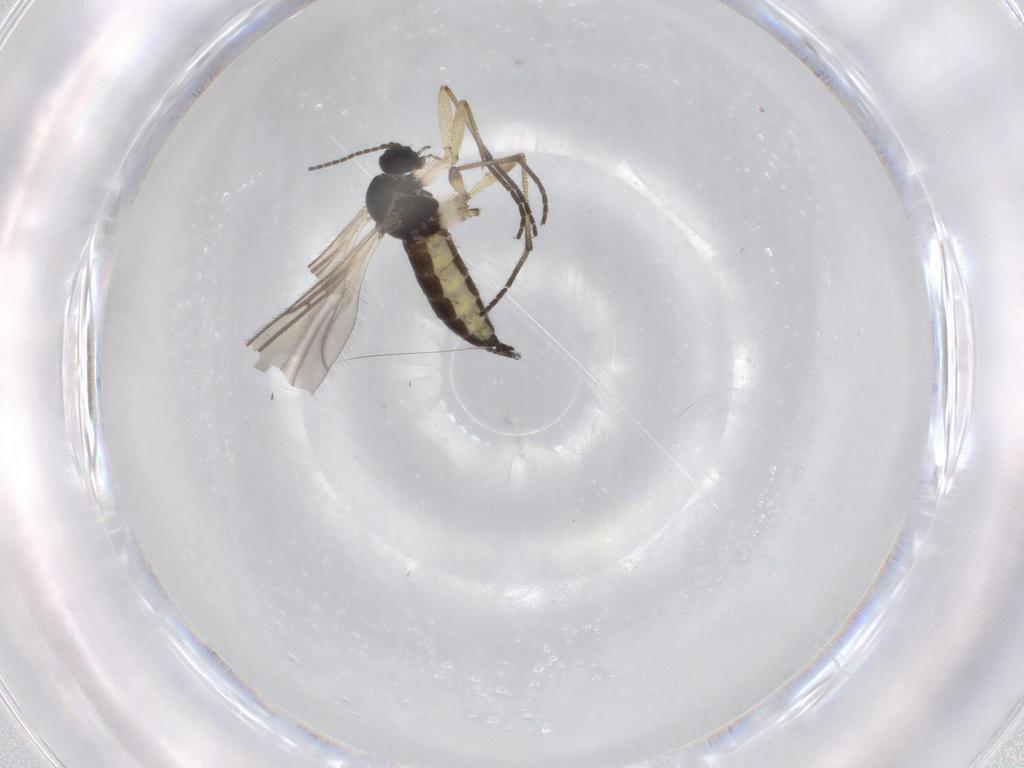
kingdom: Animalia
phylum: Arthropoda
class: Insecta
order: Diptera
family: Sciaridae
